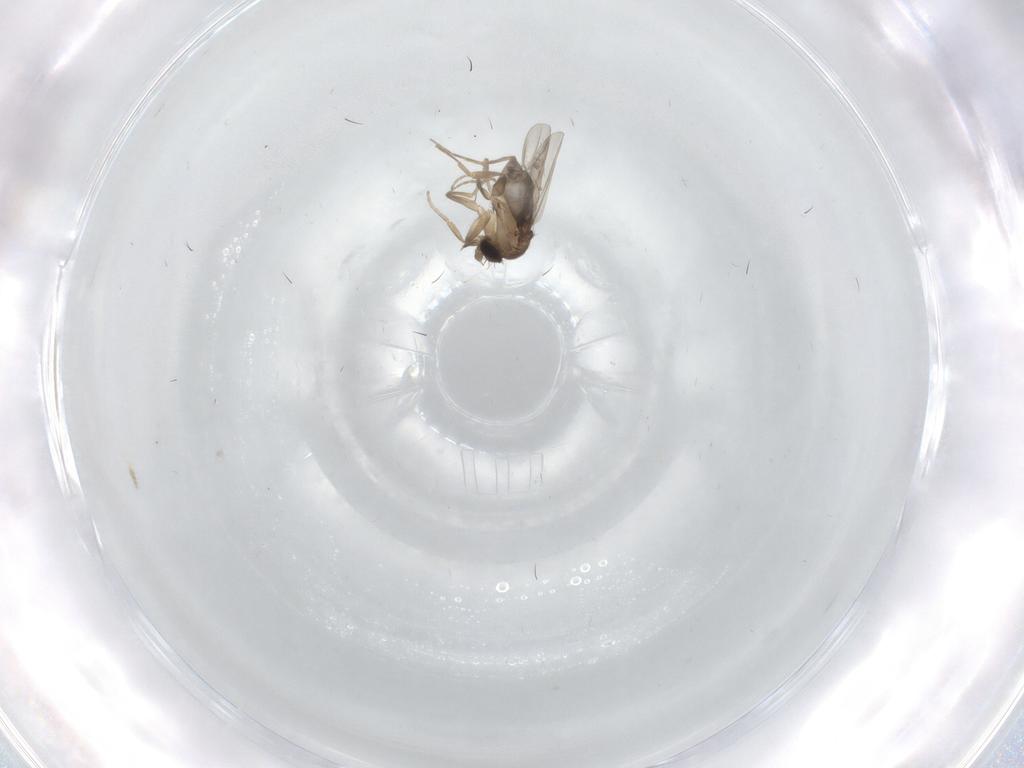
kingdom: Animalia
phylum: Arthropoda
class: Insecta
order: Diptera
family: Phoridae
